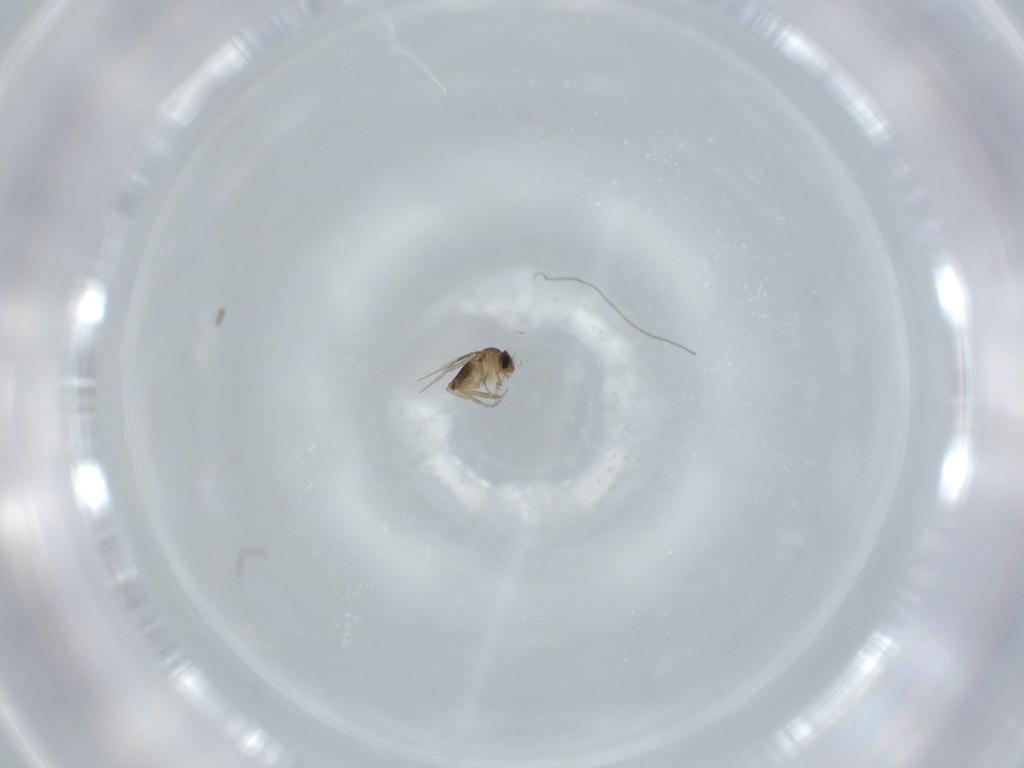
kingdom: Animalia
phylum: Arthropoda
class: Insecta
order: Diptera
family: Phoridae
